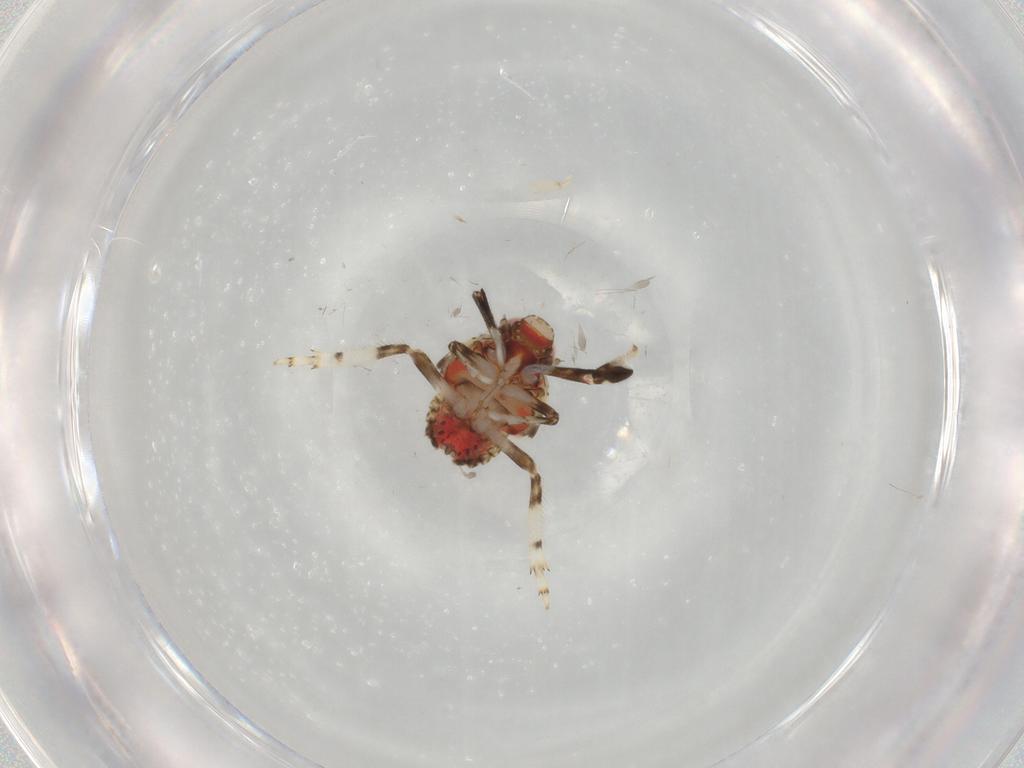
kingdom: Animalia
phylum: Arthropoda
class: Insecta
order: Hemiptera
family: Issidae
